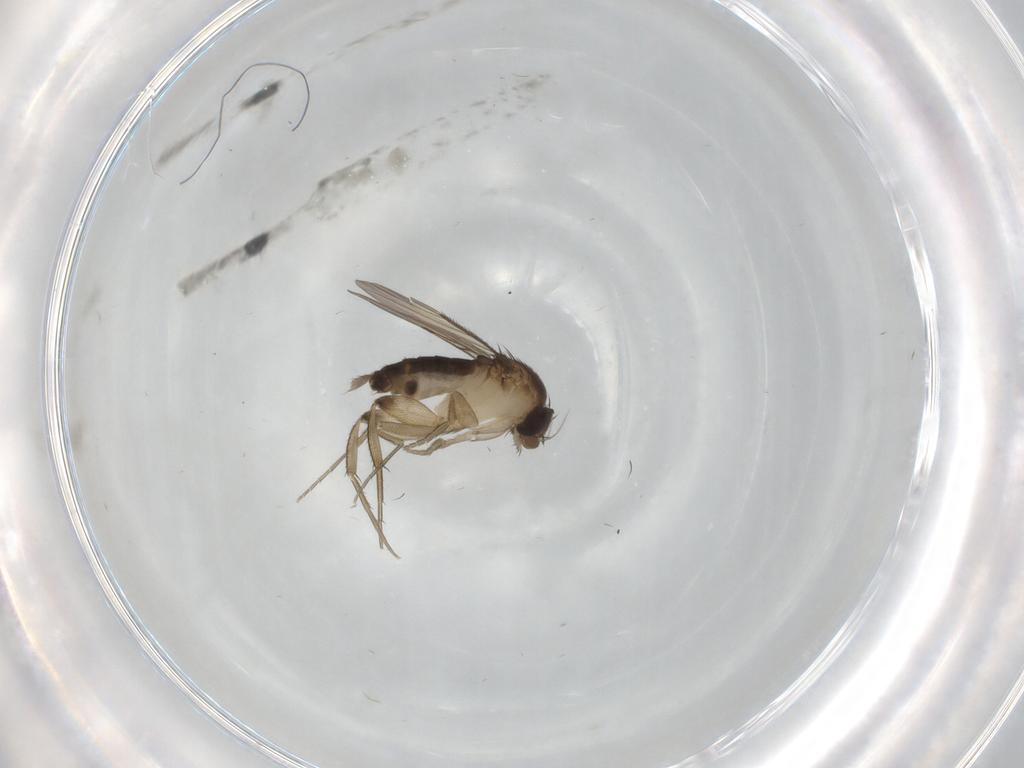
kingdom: Animalia
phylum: Arthropoda
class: Insecta
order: Diptera
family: Phoridae
